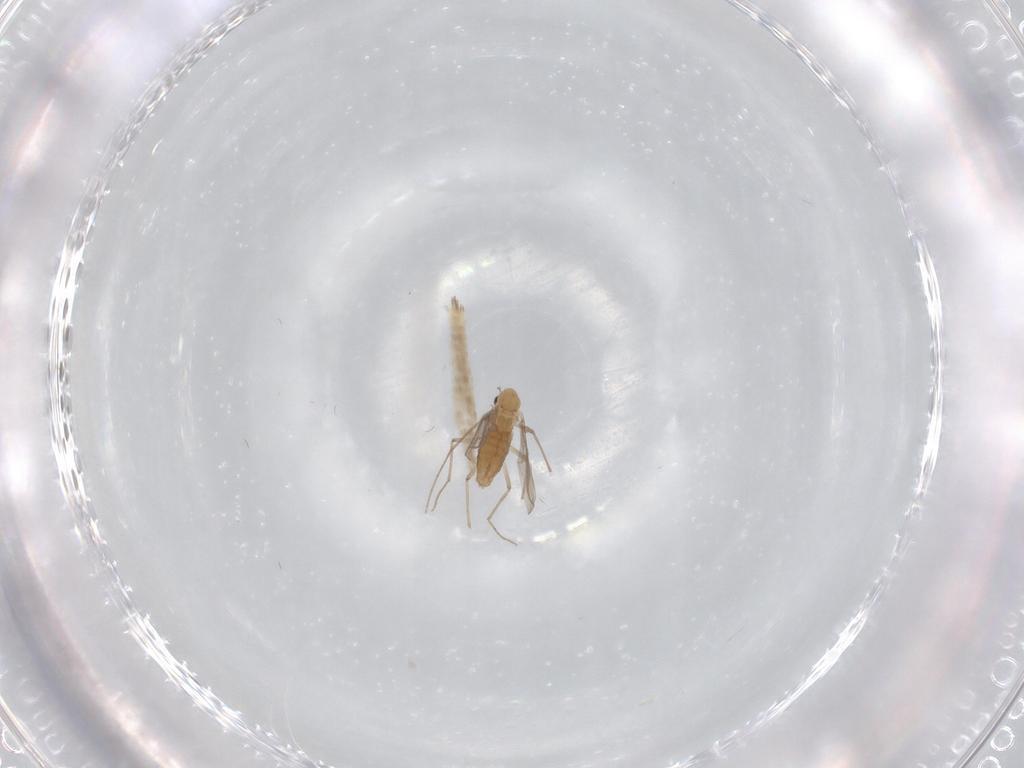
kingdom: Animalia
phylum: Arthropoda
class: Insecta
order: Diptera
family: Chironomidae
